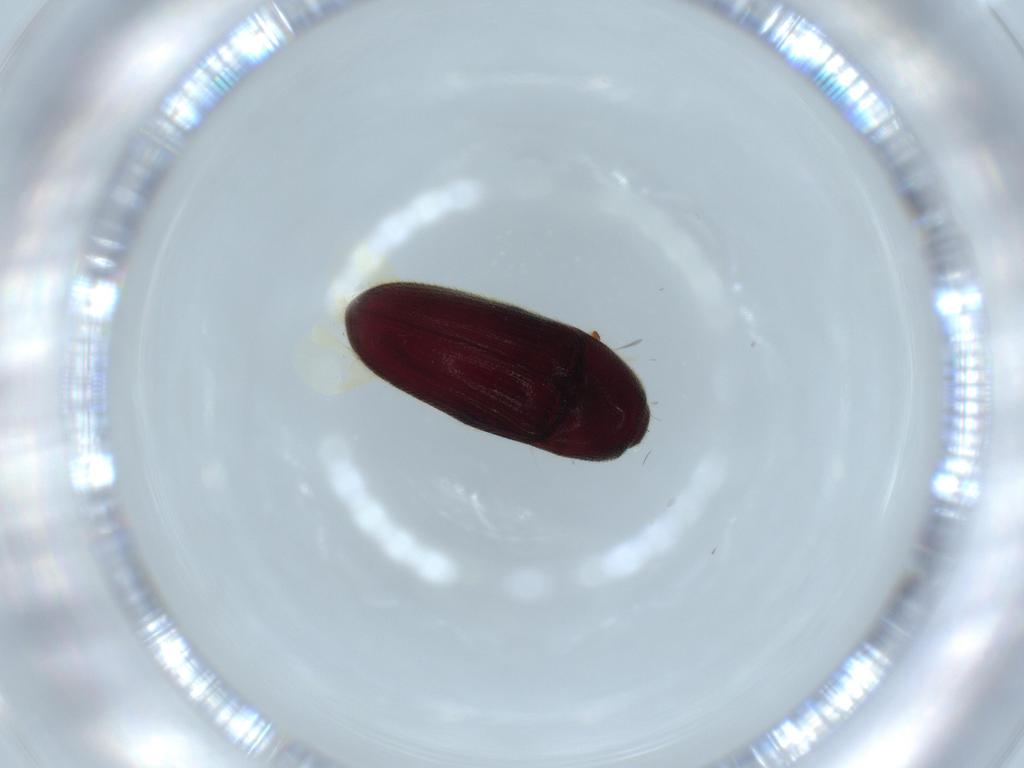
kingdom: Animalia
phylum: Arthropoda
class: Insecta
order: Coleoptera
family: Throscidae
